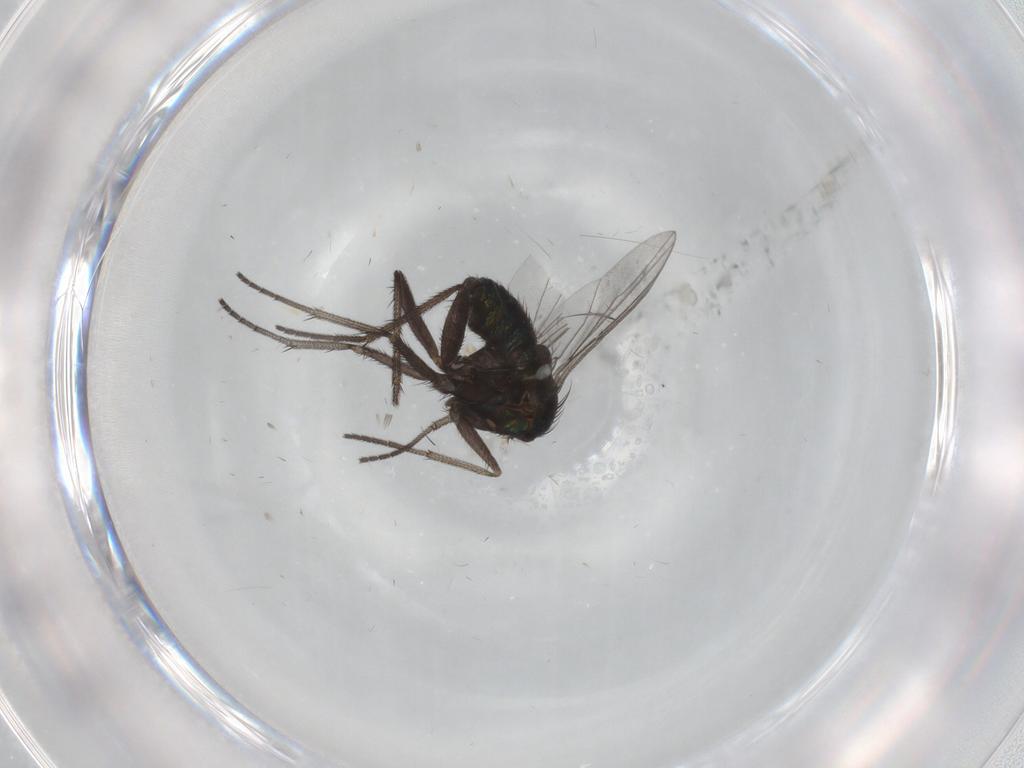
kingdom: Animalia
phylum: Arthropoda
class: Insecta
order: Diptera
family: Dolichopodidae
